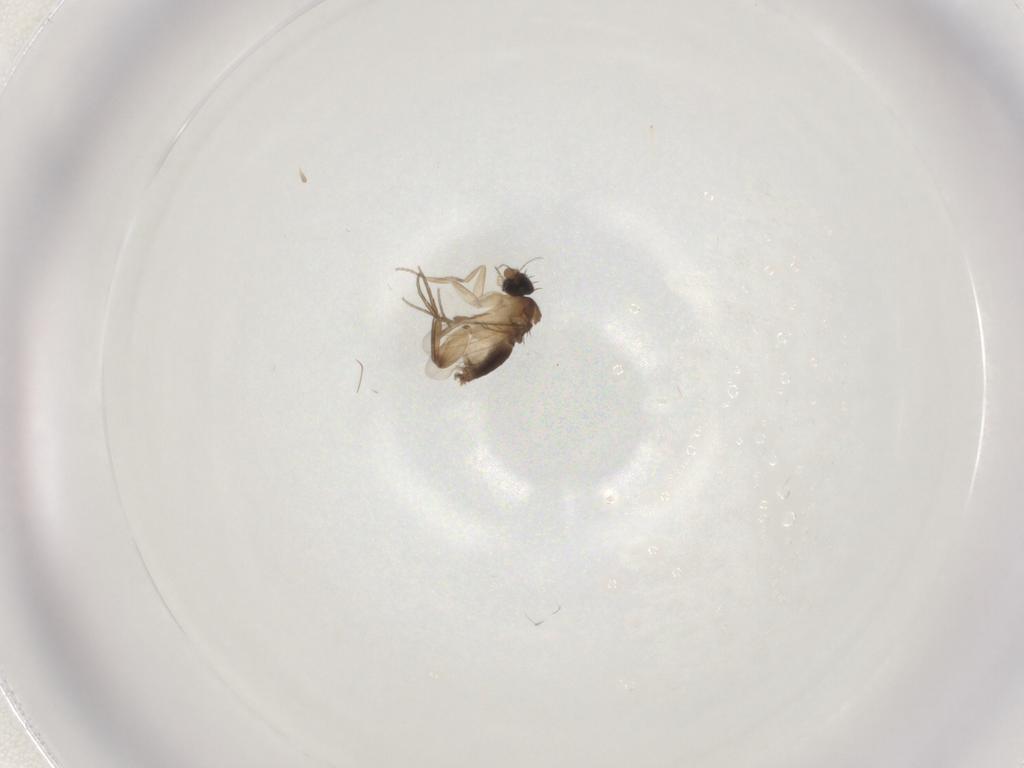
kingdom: Animalia
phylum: Arthropoda
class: Insecta
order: Diptera
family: Phoridae
